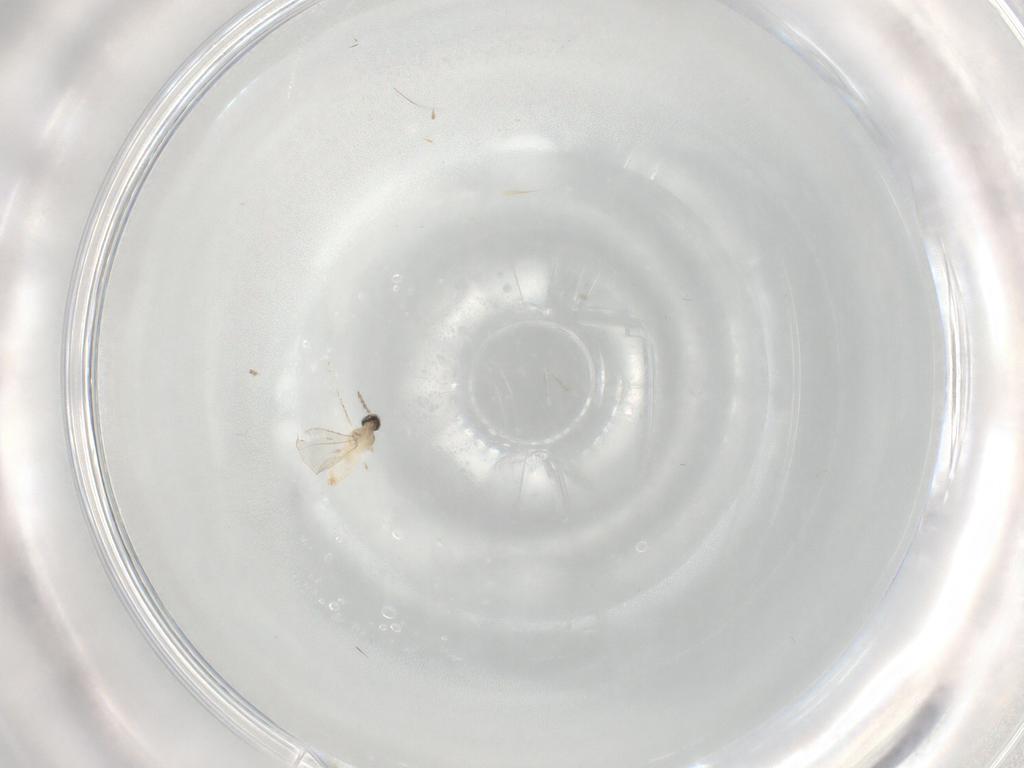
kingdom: Animalia
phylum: Arthropoda
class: Insecta
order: Diptera
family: Cecidomyiidae
